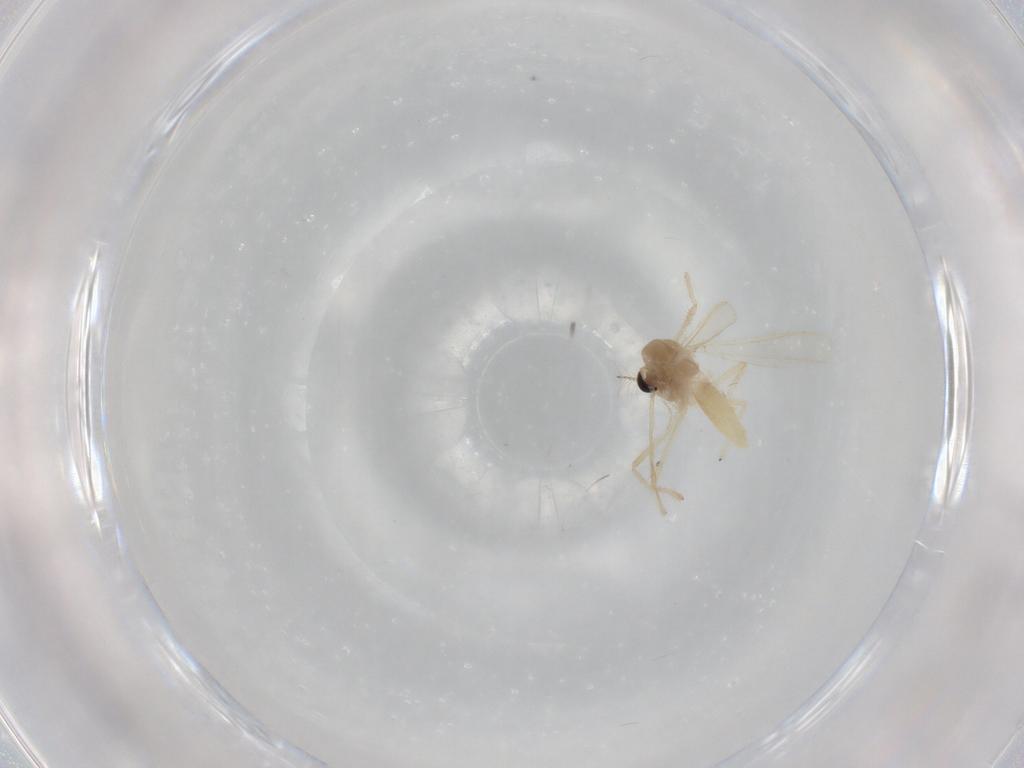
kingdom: Animalia
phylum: Arthropoda
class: Insecta
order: Diptera
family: Chironomidae
